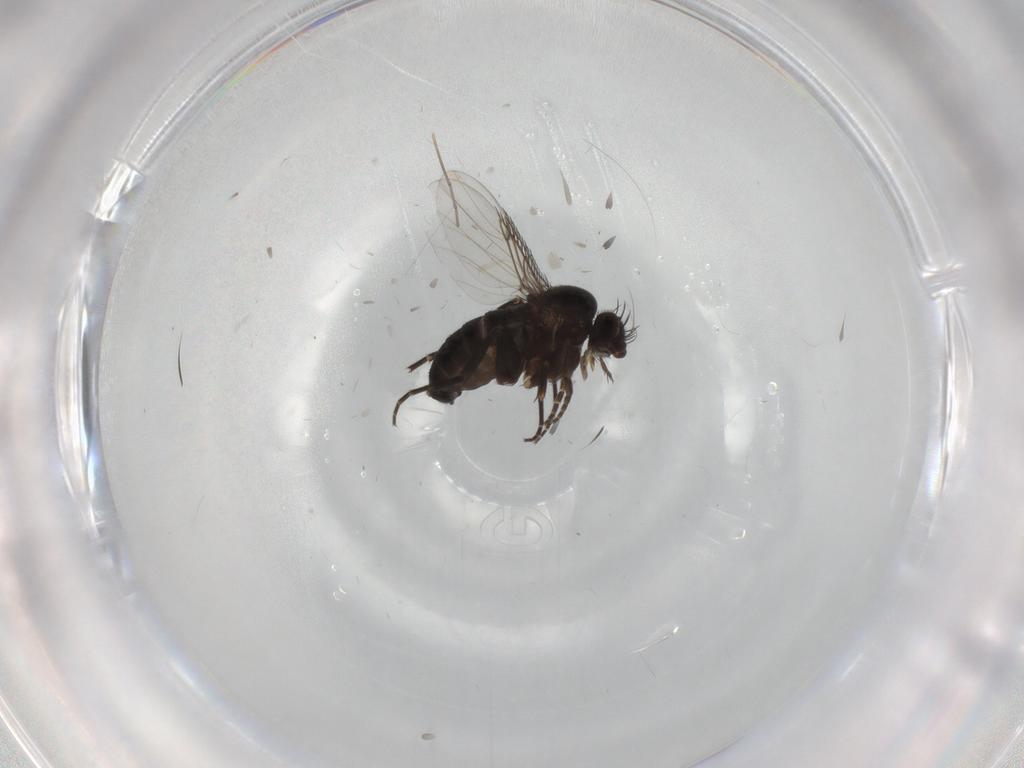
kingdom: Animalia
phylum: Arthropoda
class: Insecta
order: Diptera
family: Phoridae
